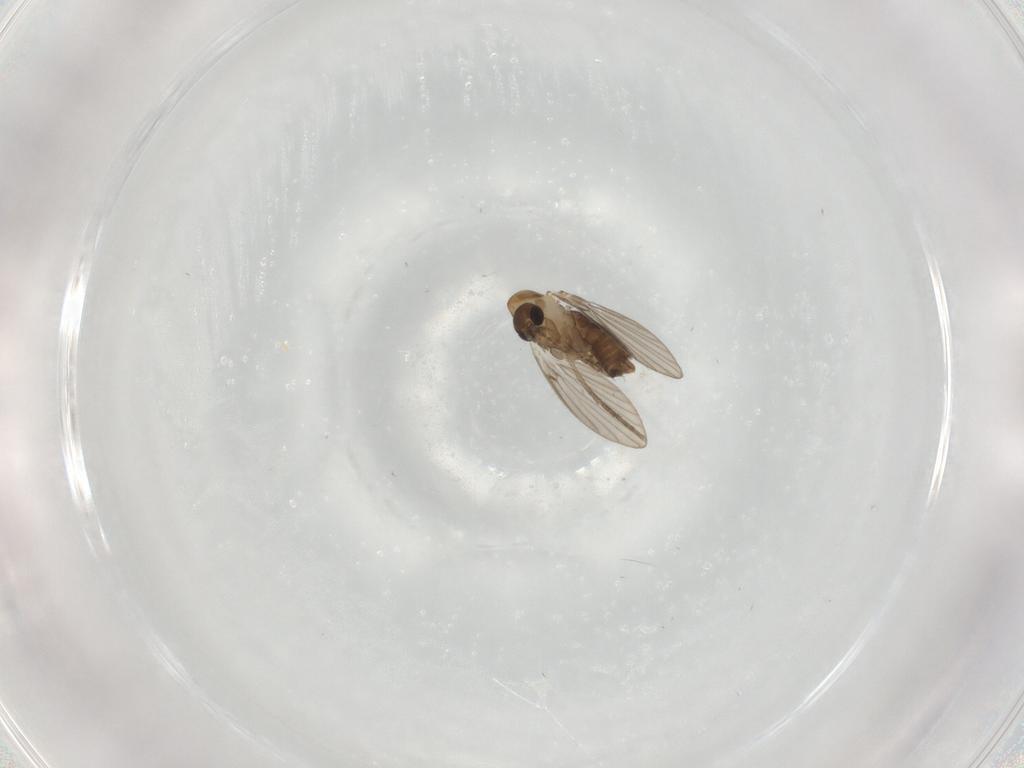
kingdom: Animalia
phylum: Arthropoda
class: Insecta
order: Diptera
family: Psychodidae
